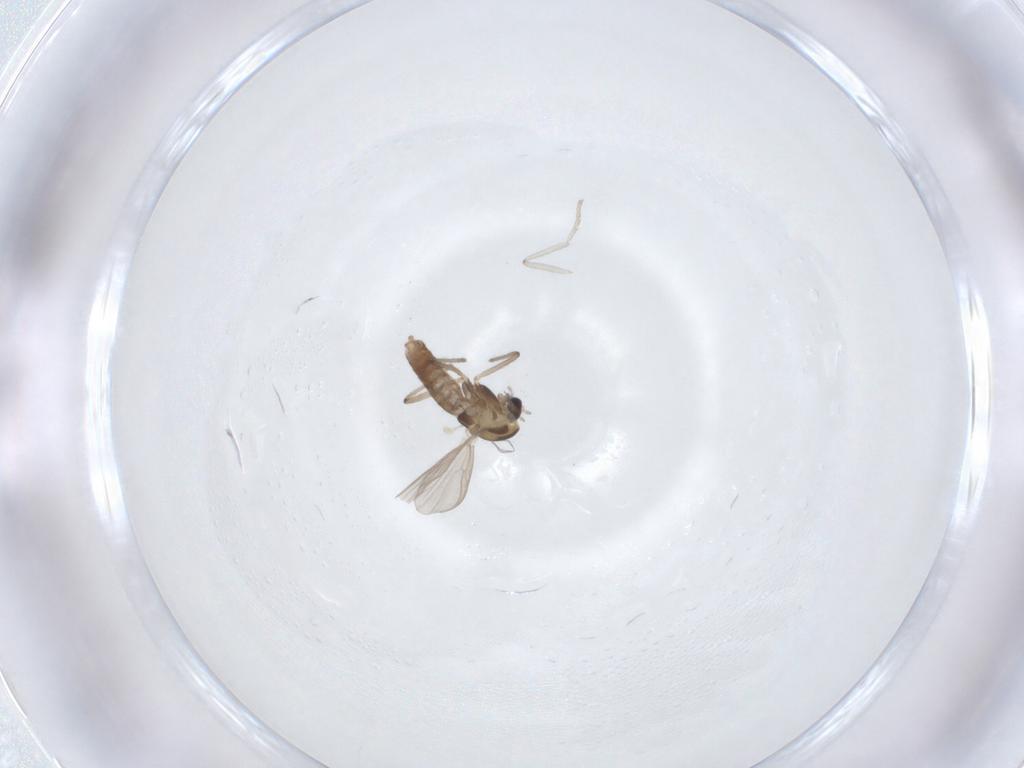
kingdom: Animalia
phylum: Arthropoda
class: Insecta
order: Diptera
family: Chironomidae
